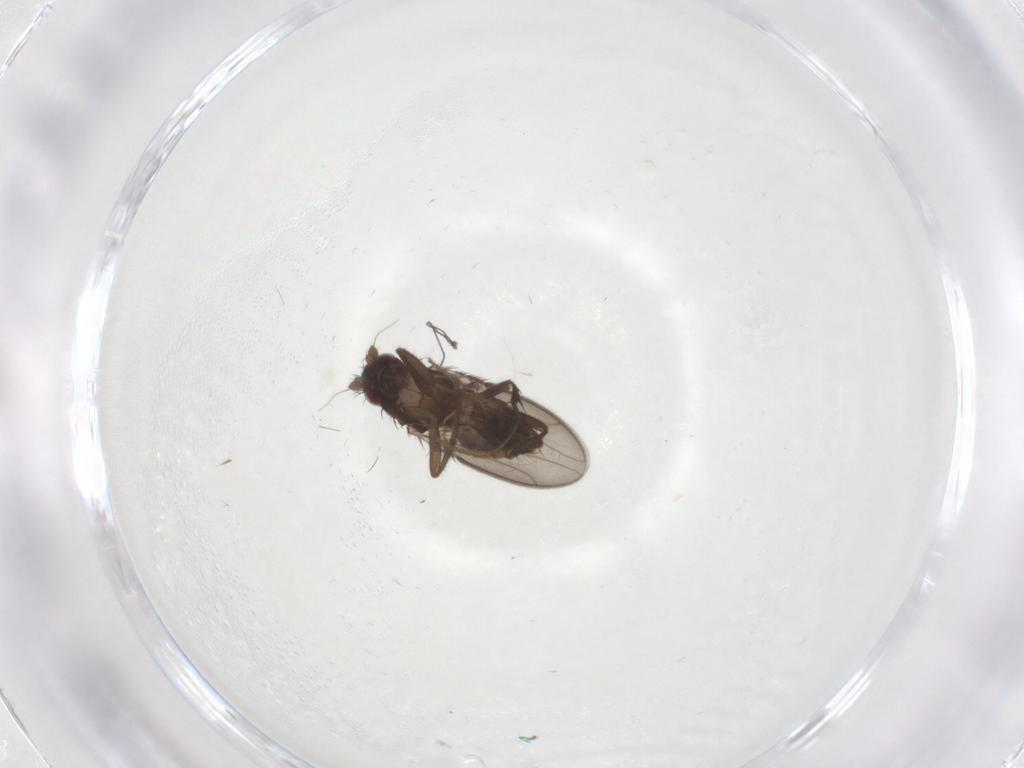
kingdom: Animalia
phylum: Arthropoda
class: Insecta
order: Diptera
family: Sphaeroceridae
